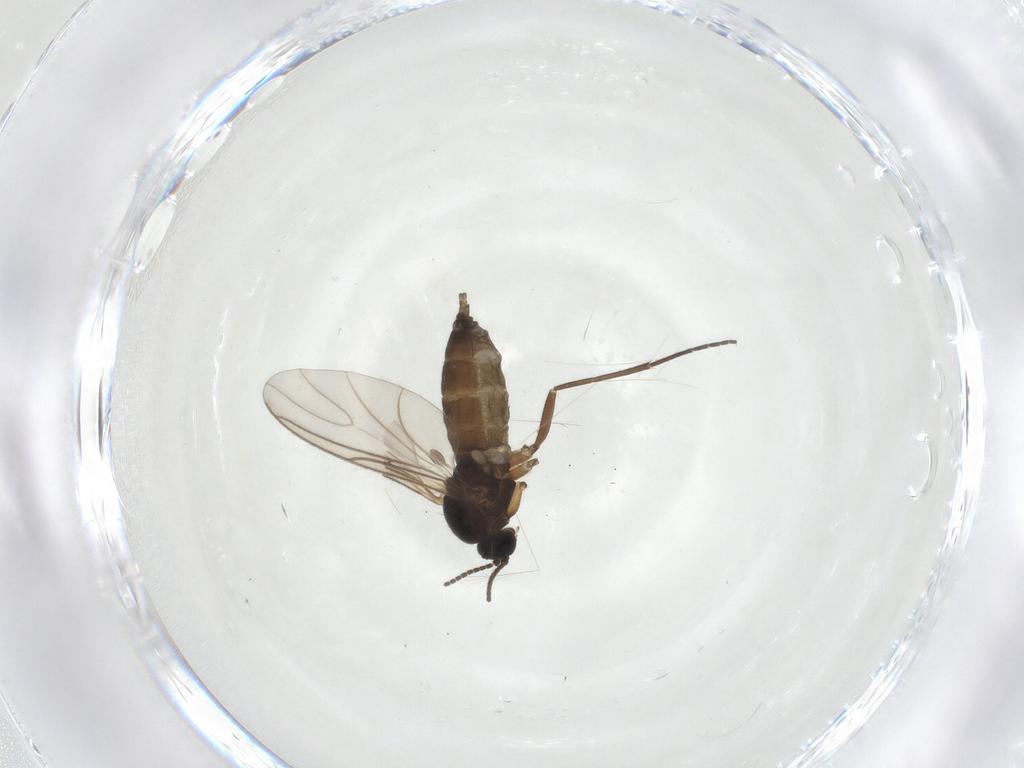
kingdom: Animalia
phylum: Arthropoda
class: Insecta
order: Diptera
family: Sciaridae
